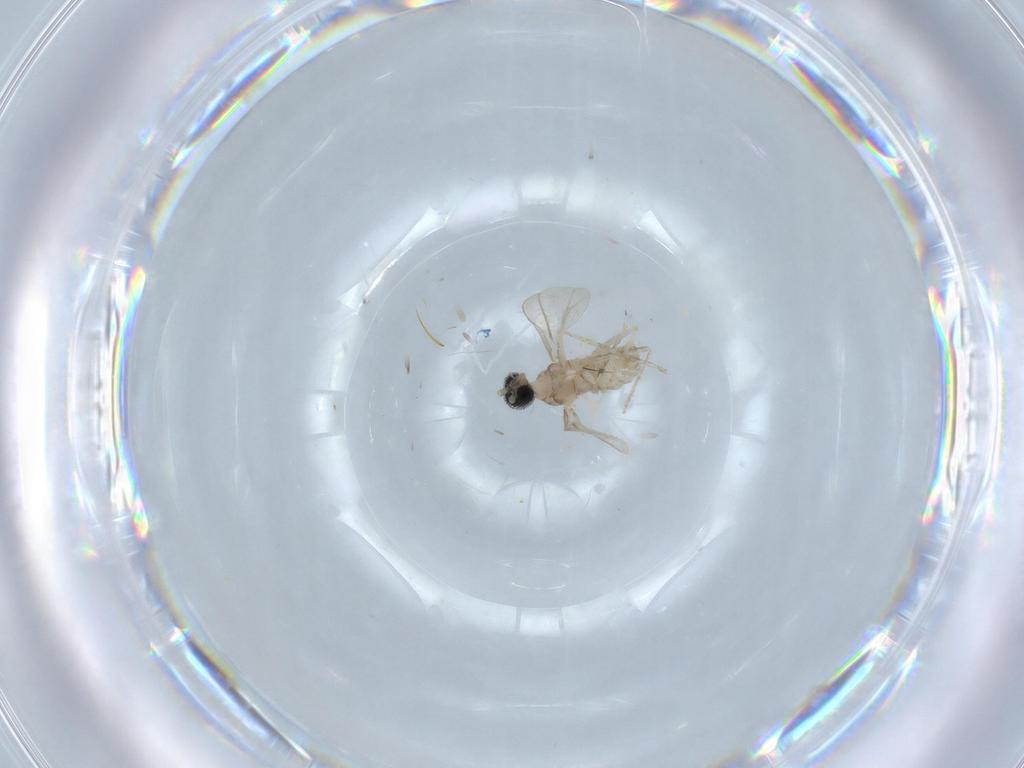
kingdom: Animalia
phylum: Arthropoda
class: Insecta
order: Diptera
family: Cecidomyiidae
